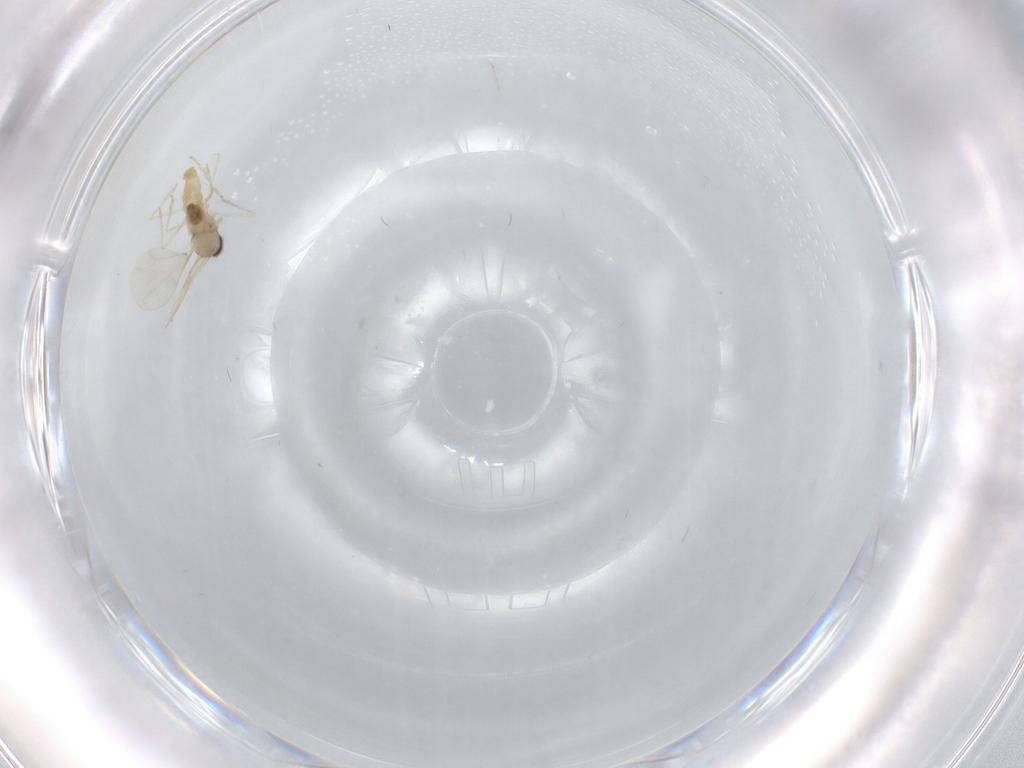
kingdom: Animalia
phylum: Arthropoda
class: Insecta
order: Diptera
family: Cecidomyiidae
